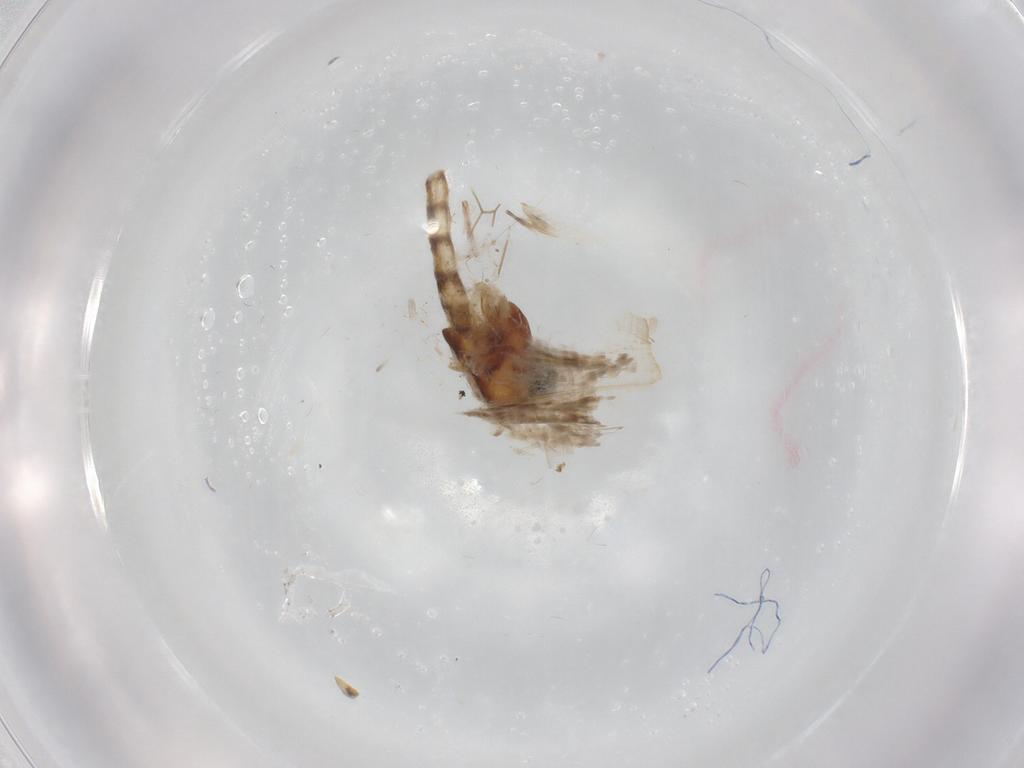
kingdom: Animalia
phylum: Arthropoda
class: Insecta
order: Diptera
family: Chironomidae
